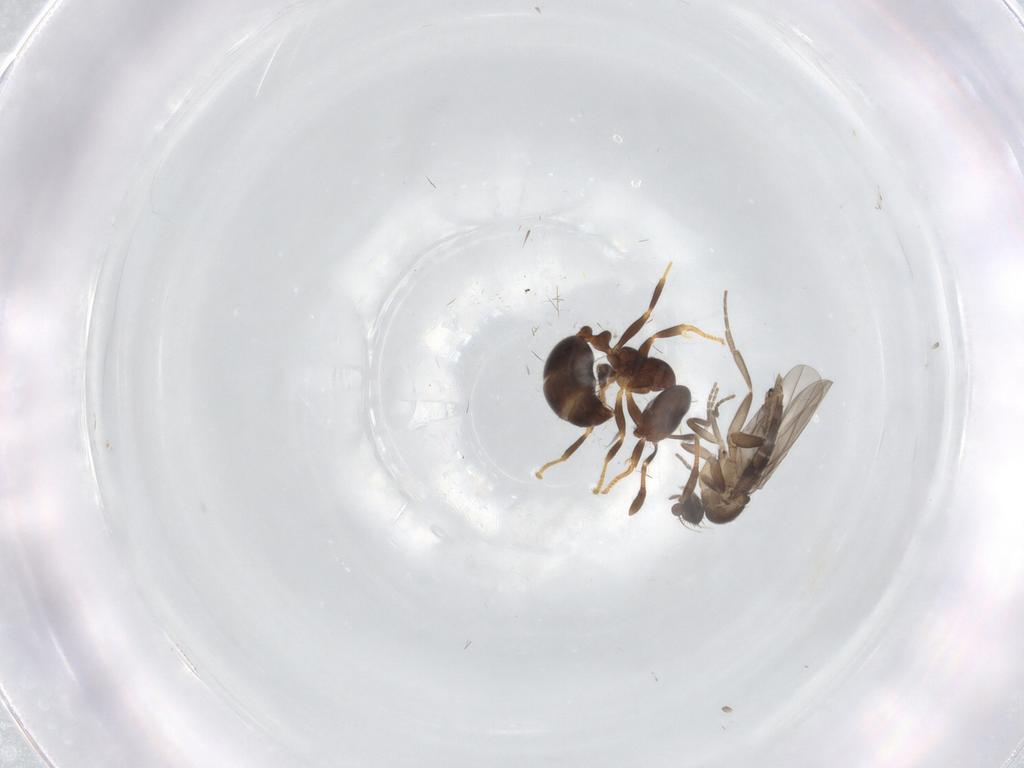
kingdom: Animalia
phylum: Arthropoda
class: Insecta
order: Diptera
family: Phoridae
